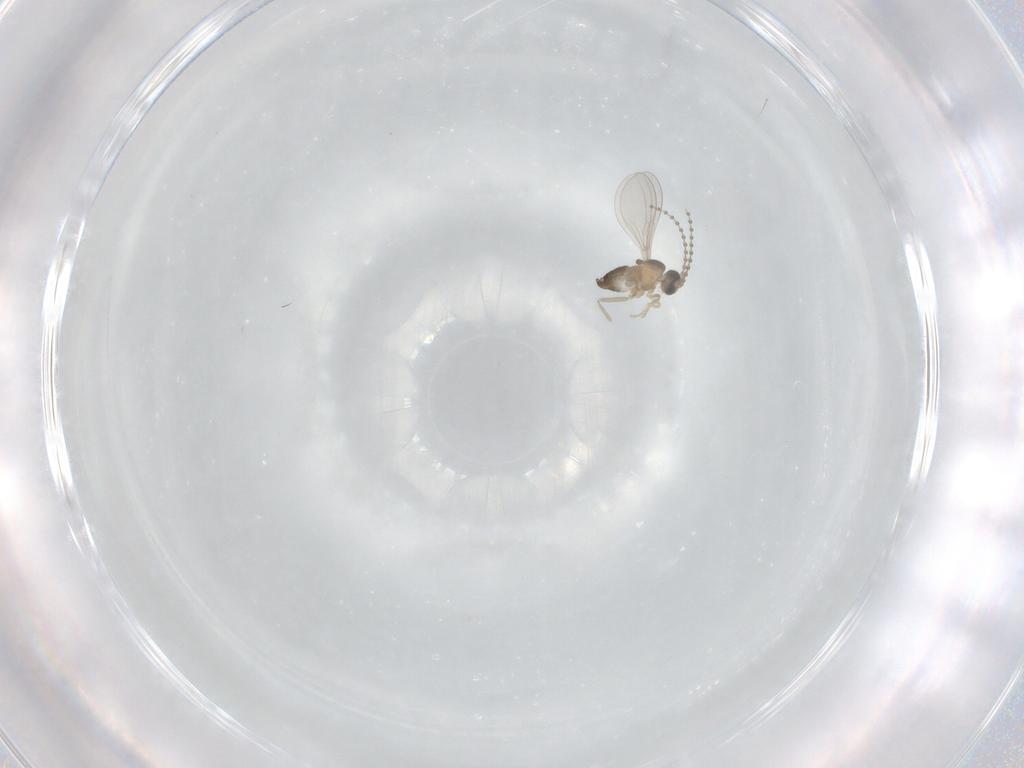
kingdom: Animalia
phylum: Arthropoda
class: Insecta
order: Diptera
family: Cecidomyiidae
